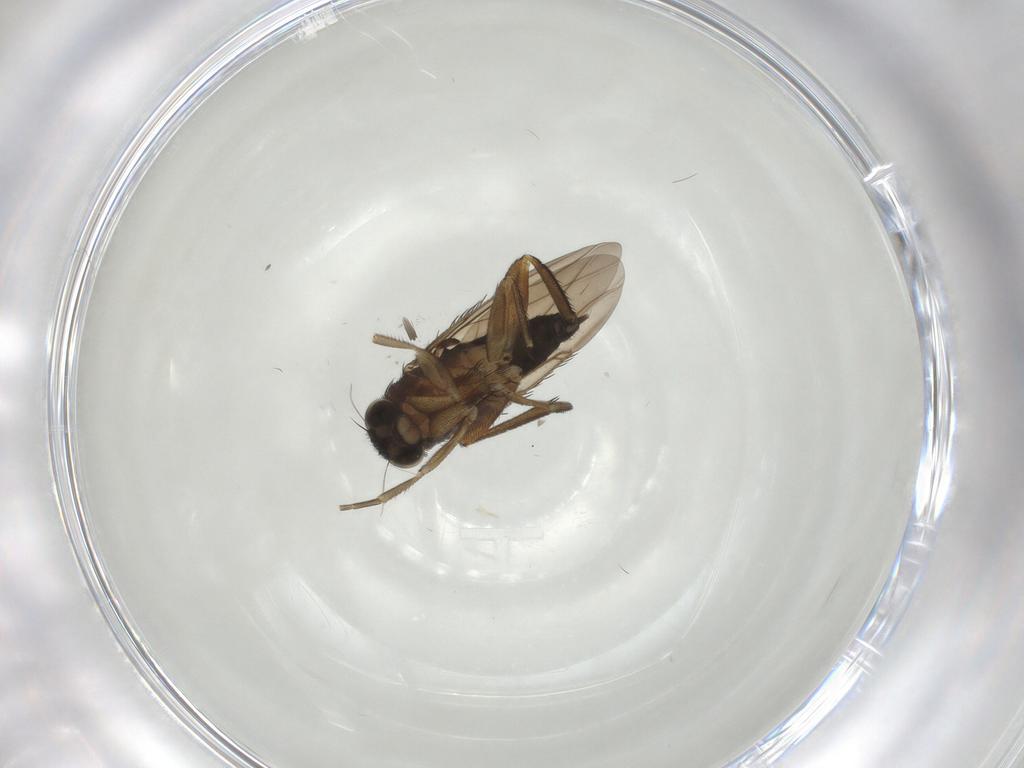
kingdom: Animalia
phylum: Arthropoda
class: Insecta
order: Diptera
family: Phoridae
